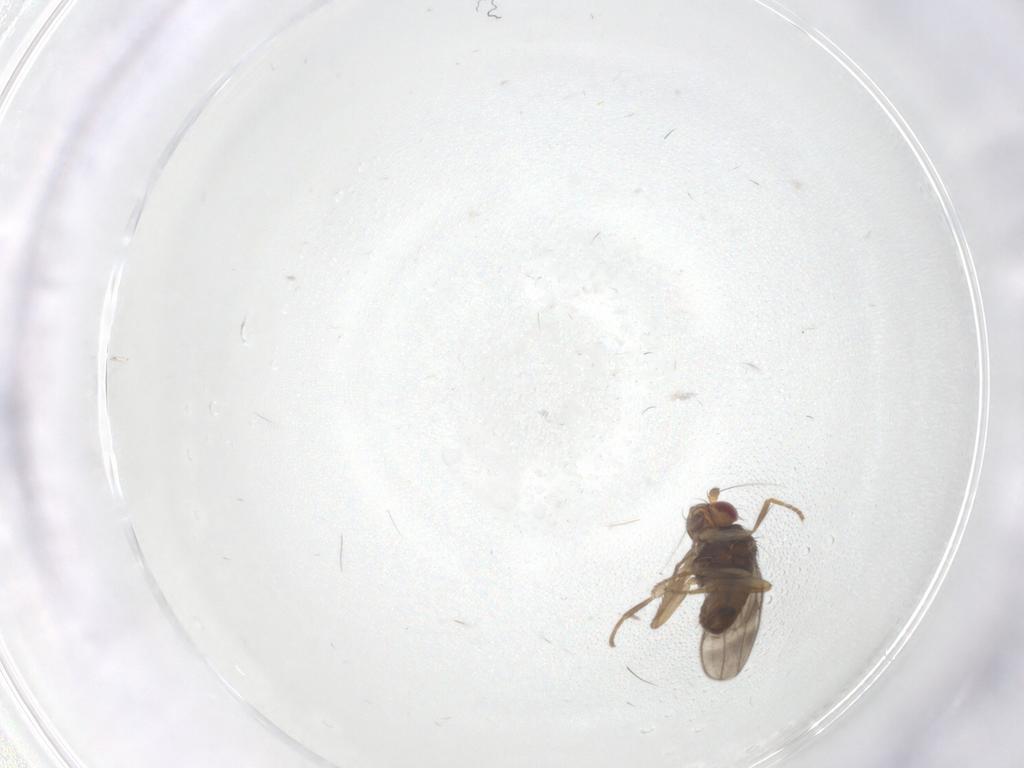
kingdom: Animalia
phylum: Arthropoda
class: Insecta
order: Diptera
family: Sphaeroceridae
